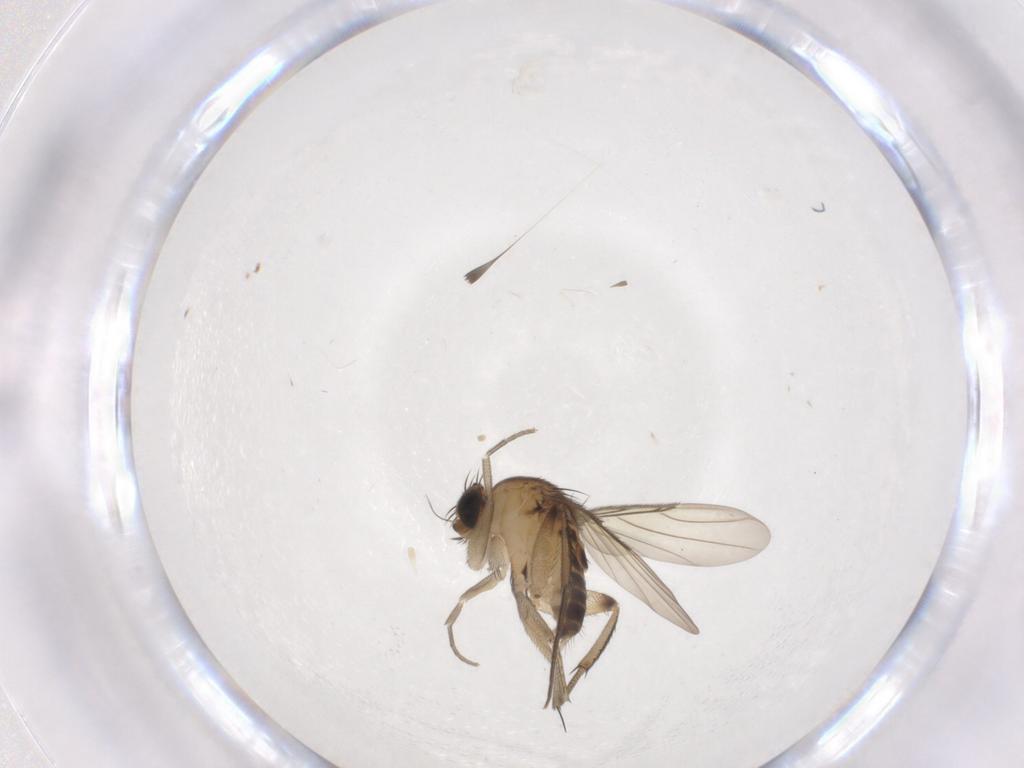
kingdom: Animalia
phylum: Arthropoda
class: Insecta
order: Diptera
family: Phoridae
